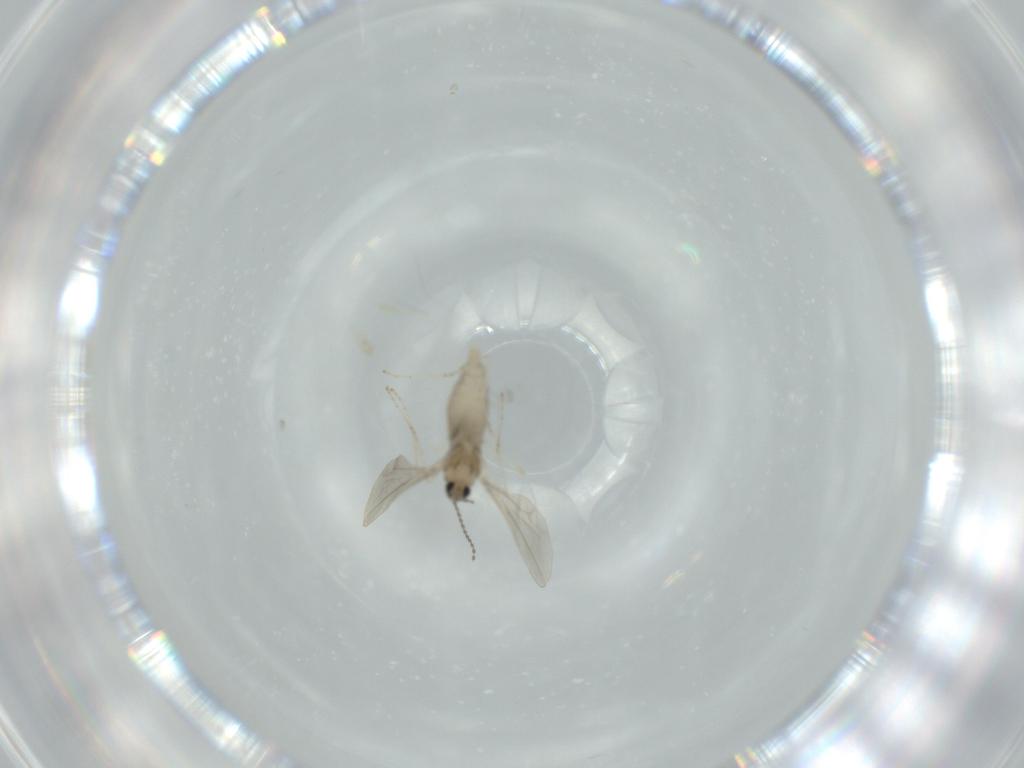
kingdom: Animalia
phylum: Arthropoda
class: Insecta
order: Diptera
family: Cecidomyiidae
